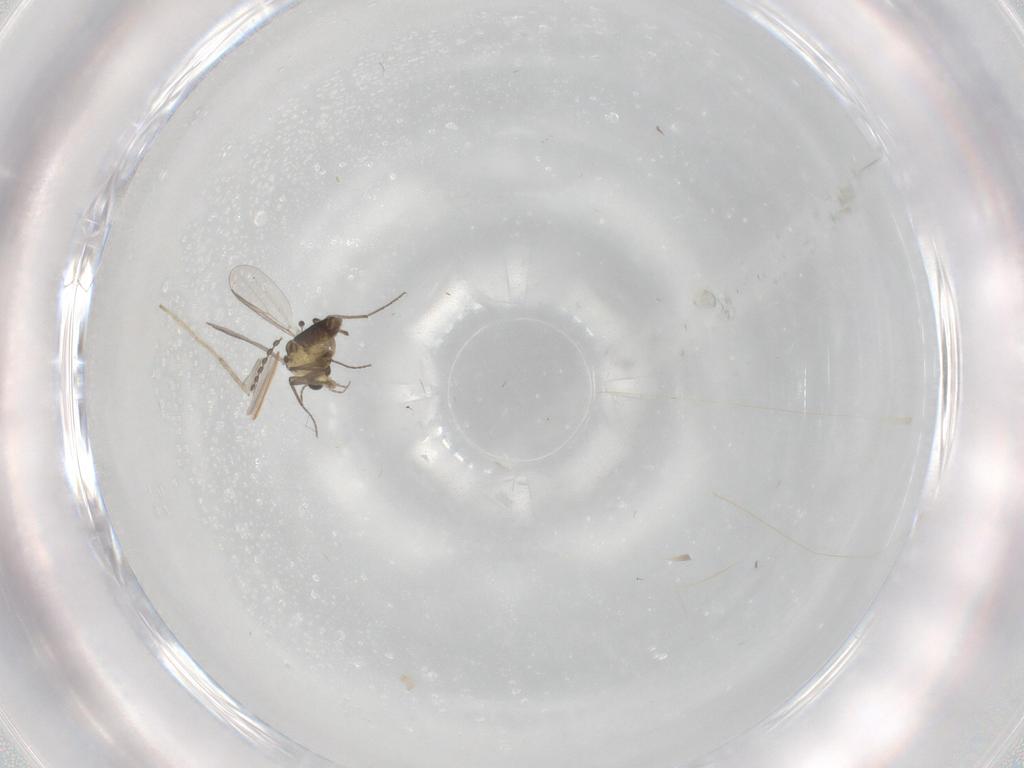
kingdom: Animalia
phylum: Arthropoda
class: Insecta
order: Diptera
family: Chironomidae
